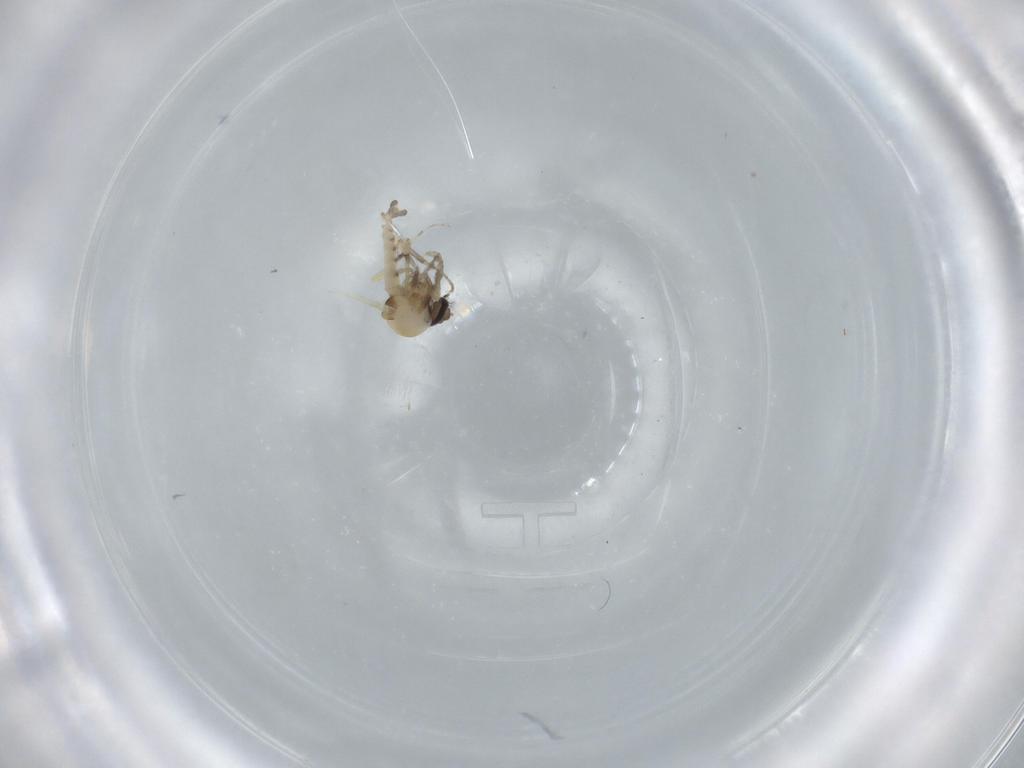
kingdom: Animalia
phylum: Arthropoda
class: Insecta
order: Diptera
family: Ceratopogonidae
